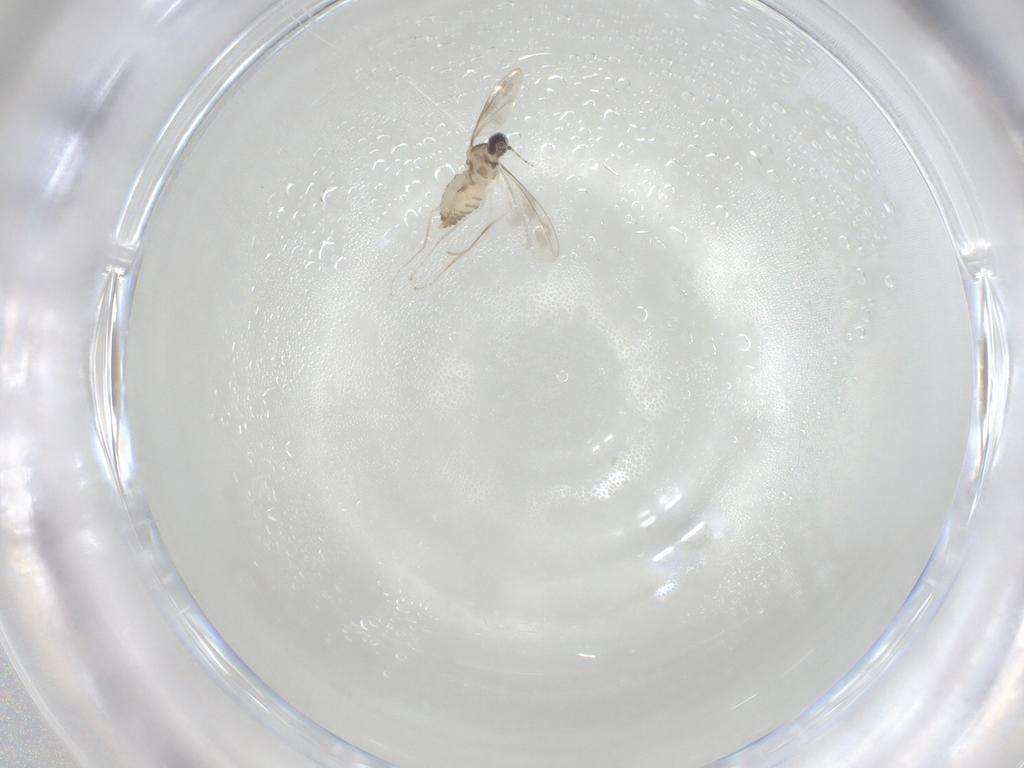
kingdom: Animalia
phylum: Arthropoda
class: Insecta
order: Diptera
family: Cecidomyiidae
